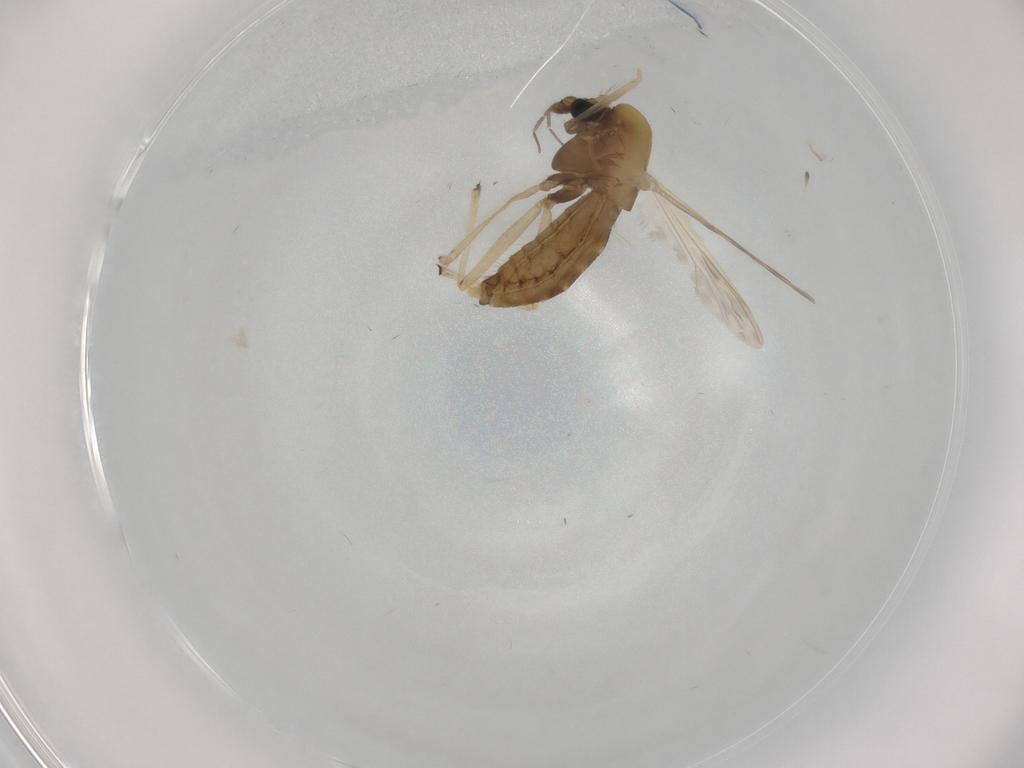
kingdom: Animalia
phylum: Arthropoda
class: Insecta
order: Diptera
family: Chironomidae
